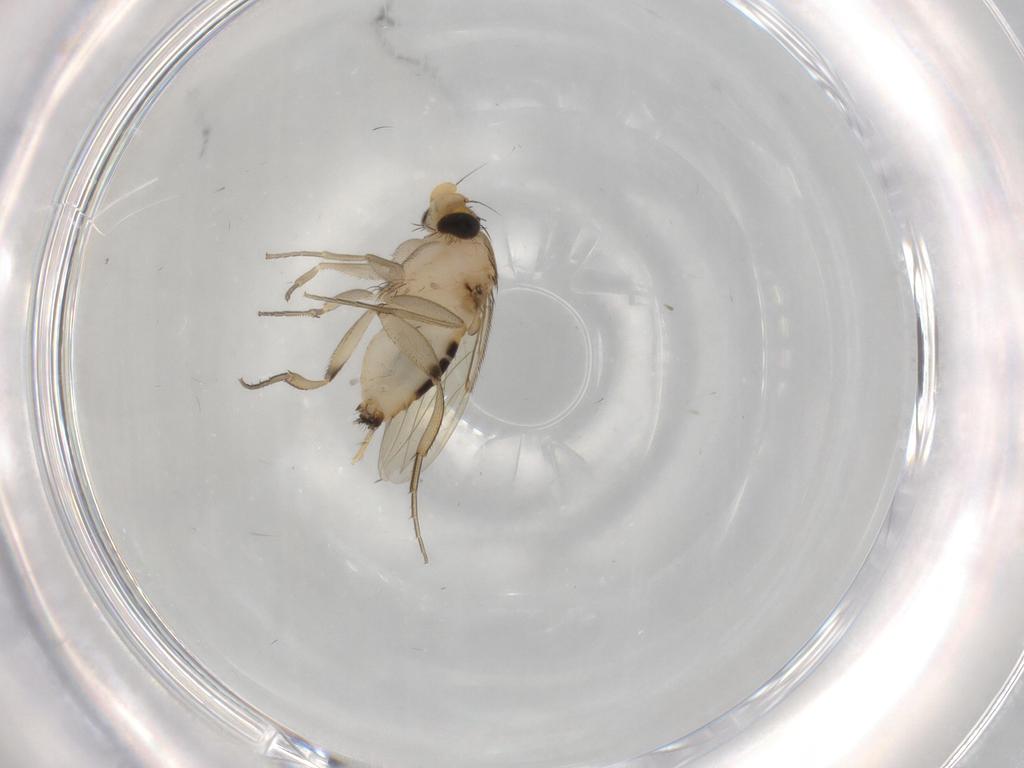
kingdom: Animalia
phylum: Arthropoda
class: Insecta
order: Diptera
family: Phoridae
